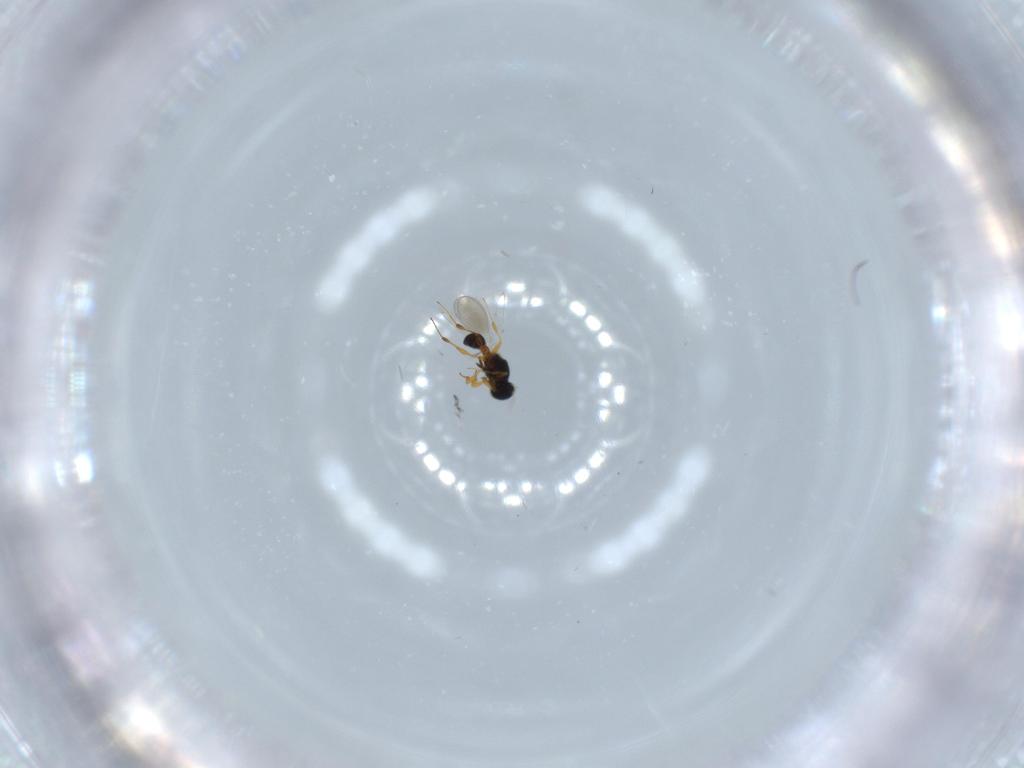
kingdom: Animalia
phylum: Arthropoda
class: Insecta
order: Hymenoptera
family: Platygastridae
